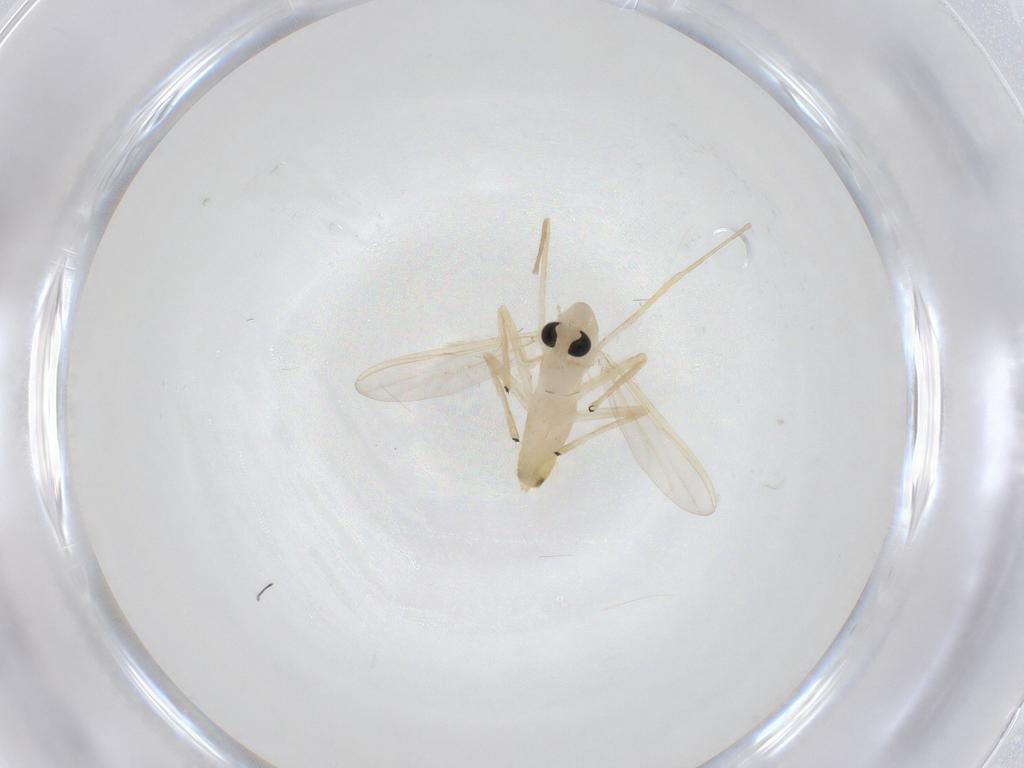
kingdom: Animalia
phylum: Arthropoda
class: Insecta
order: Diptera
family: Chironomidae
